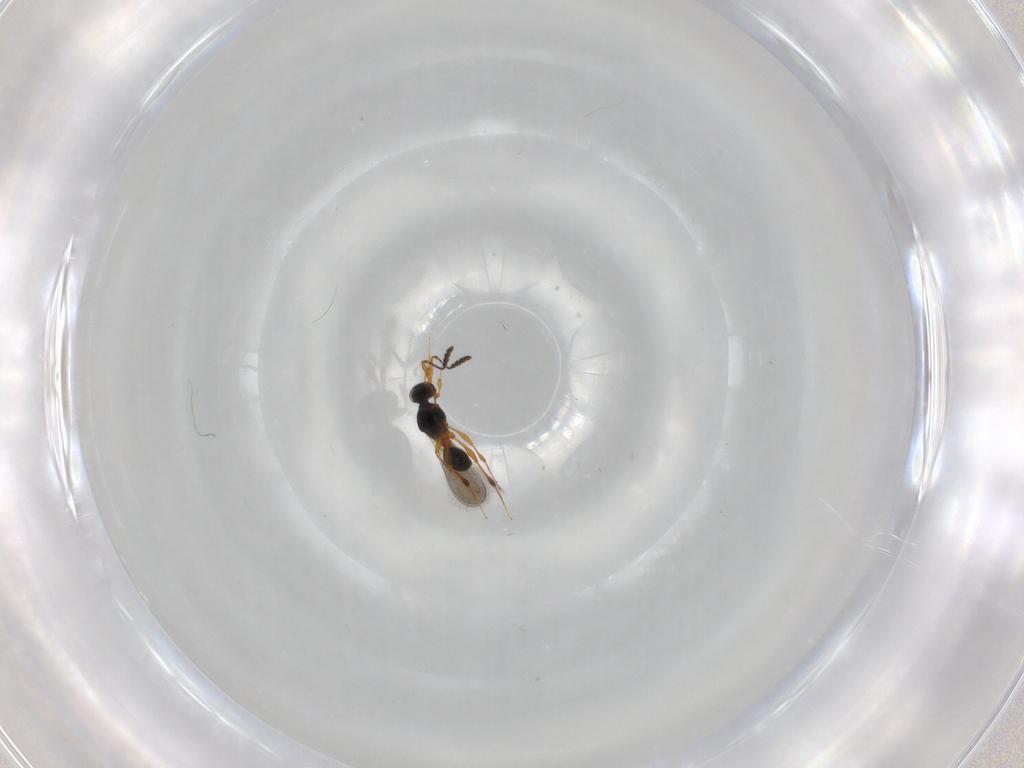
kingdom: Animalia
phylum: Arthropoda
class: Insecta
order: Hymenoptera
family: Platygastridae
